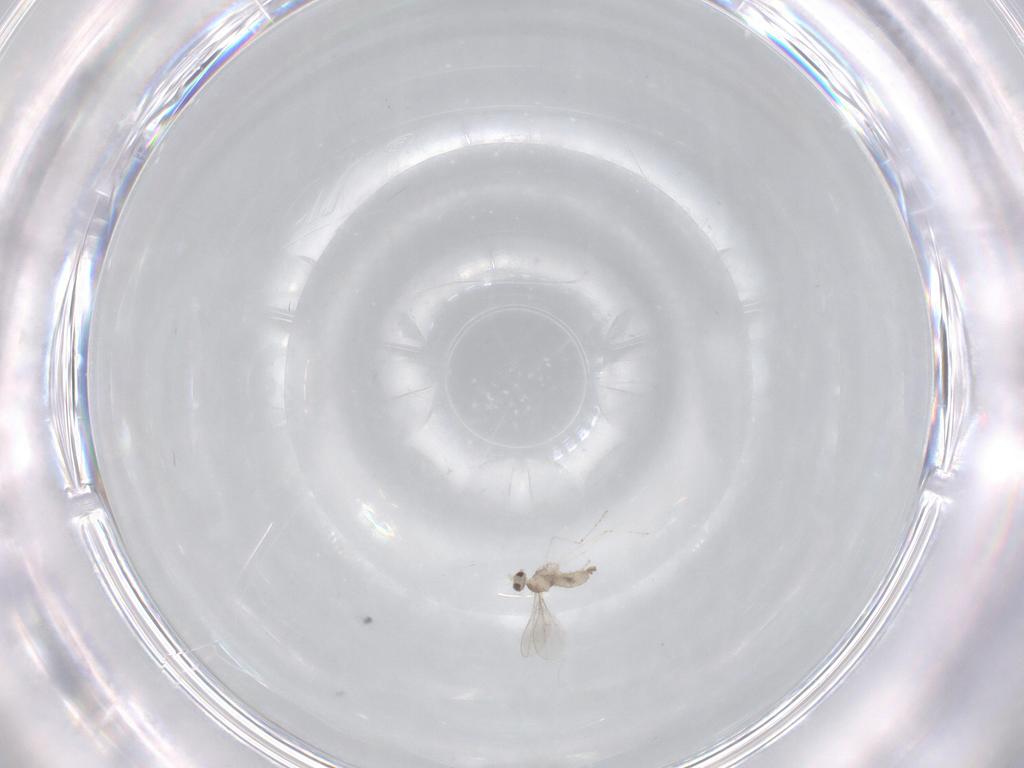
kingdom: Animalia
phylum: Arthropoda
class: Insecta
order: Diptera
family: Cecidomyiidae
